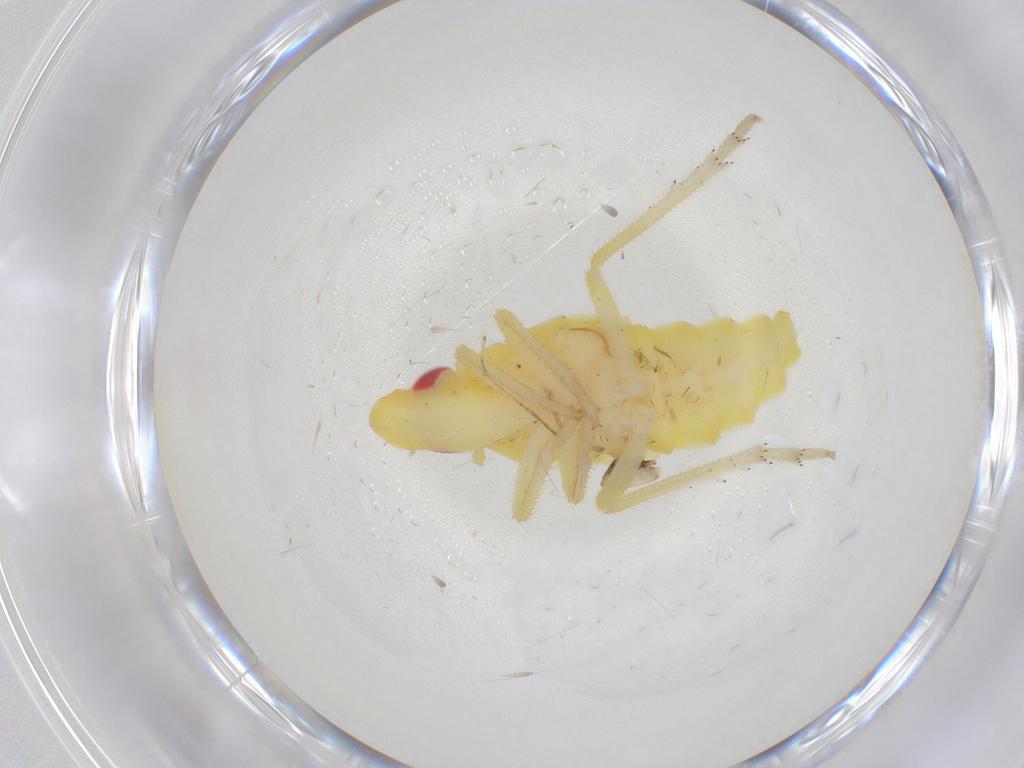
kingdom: Animalia
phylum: Arthropoda
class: Insecta
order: Hemiptera
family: Tropiduchidae
